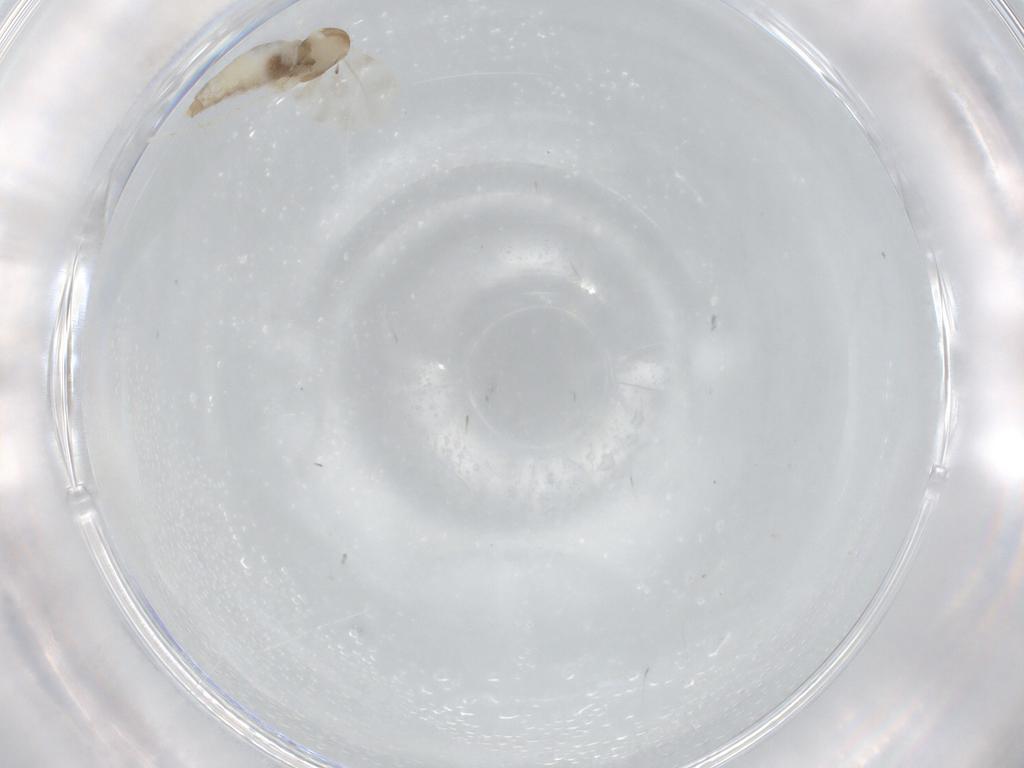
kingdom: Animalia
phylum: Arthropoda
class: Insecta
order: Diptera
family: Cecidomyiidae
